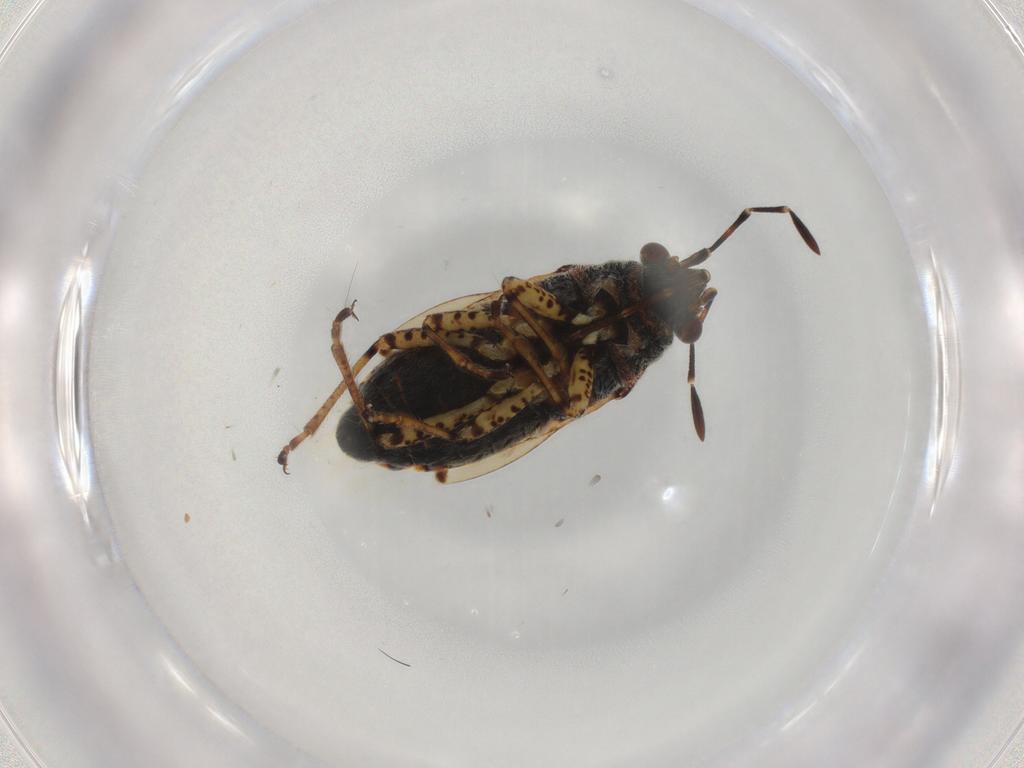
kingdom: Animalia
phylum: Arthropoda
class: Insecta
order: Hemiptera
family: Lygaeidae
